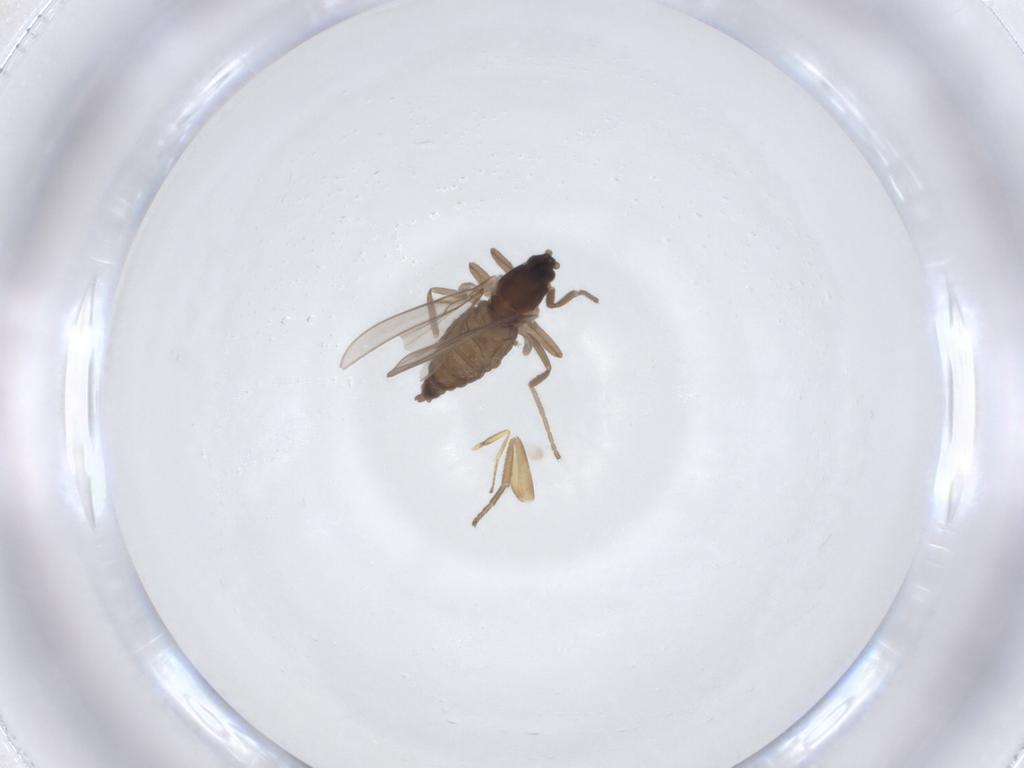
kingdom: Animalia
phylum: Arthropoda
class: Insecta
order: Diptera
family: Phoridae
